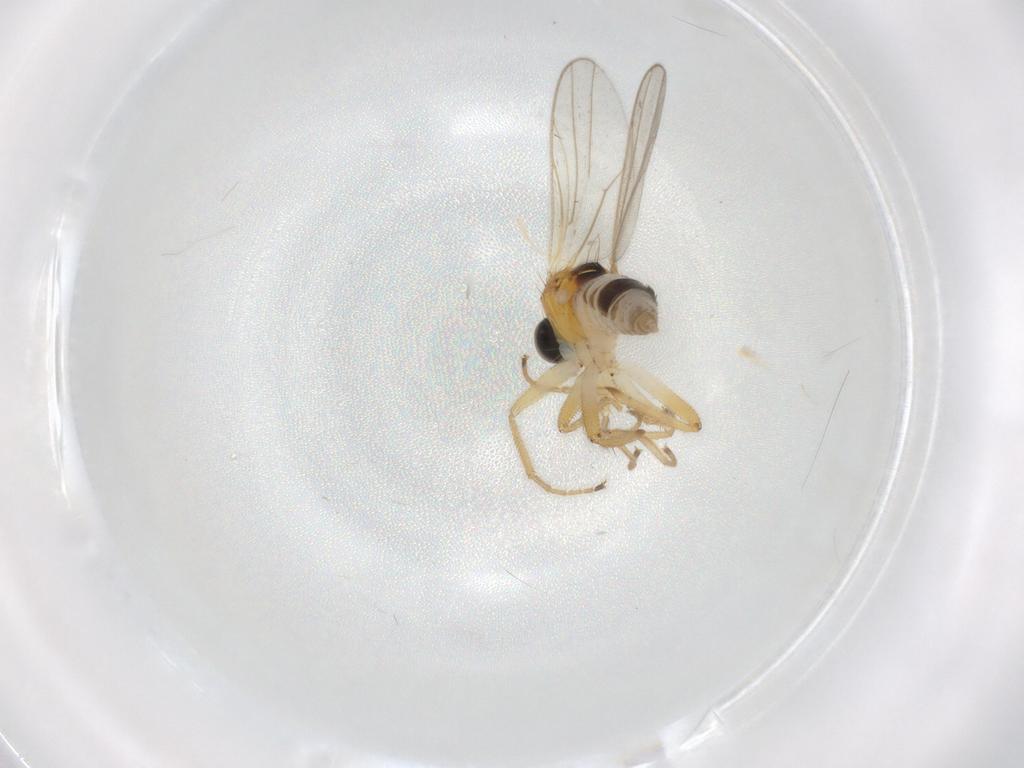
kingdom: Animalia
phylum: Arthropoda
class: Insecta
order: Diptera
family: Hybotidae
